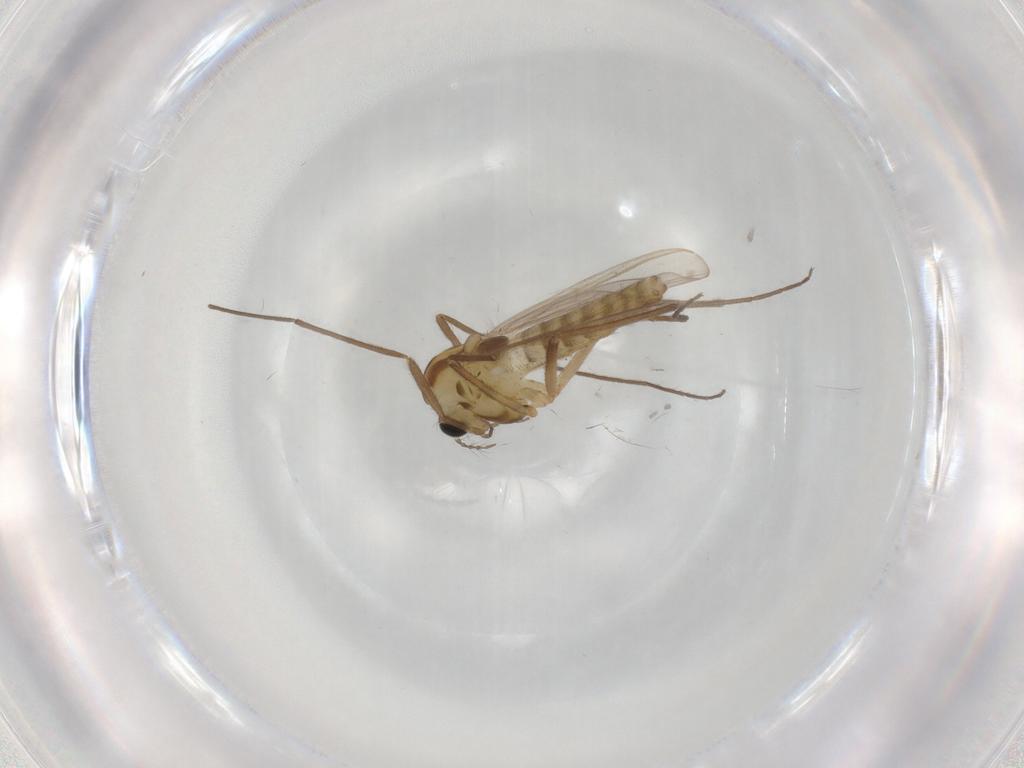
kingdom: Animalia
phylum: Arthropoda
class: Insecta
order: Diptera
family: Chironomidae
